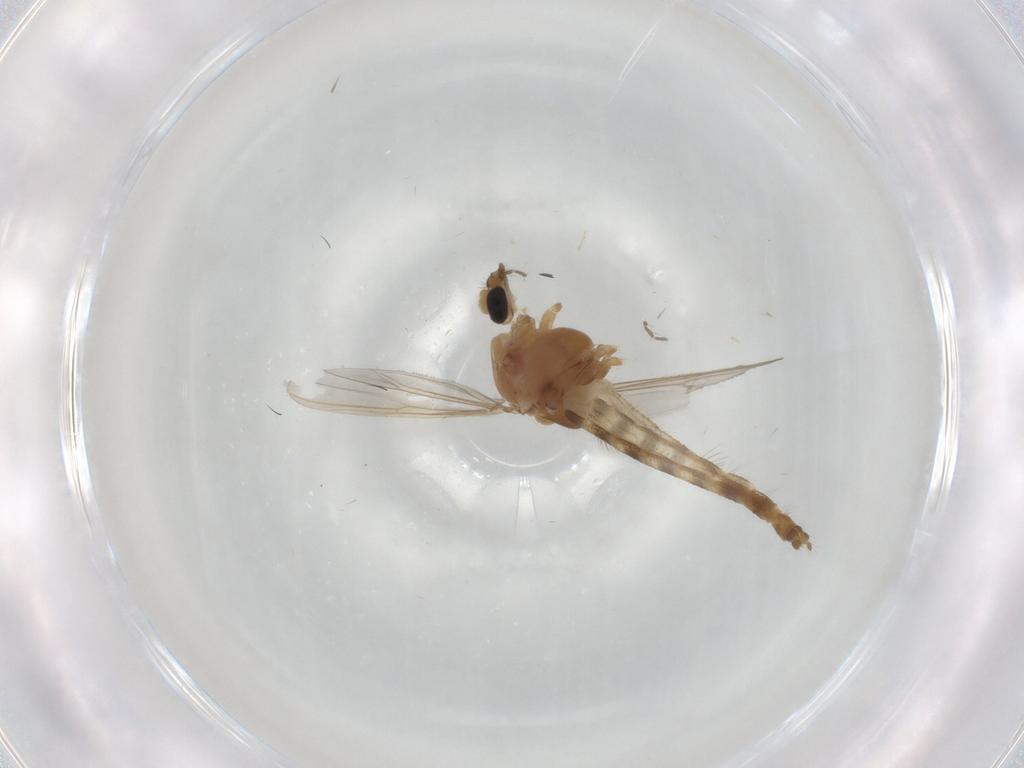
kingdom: Animalia
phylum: Arthropoda
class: Insecta
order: Diptera
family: Chironomidae
